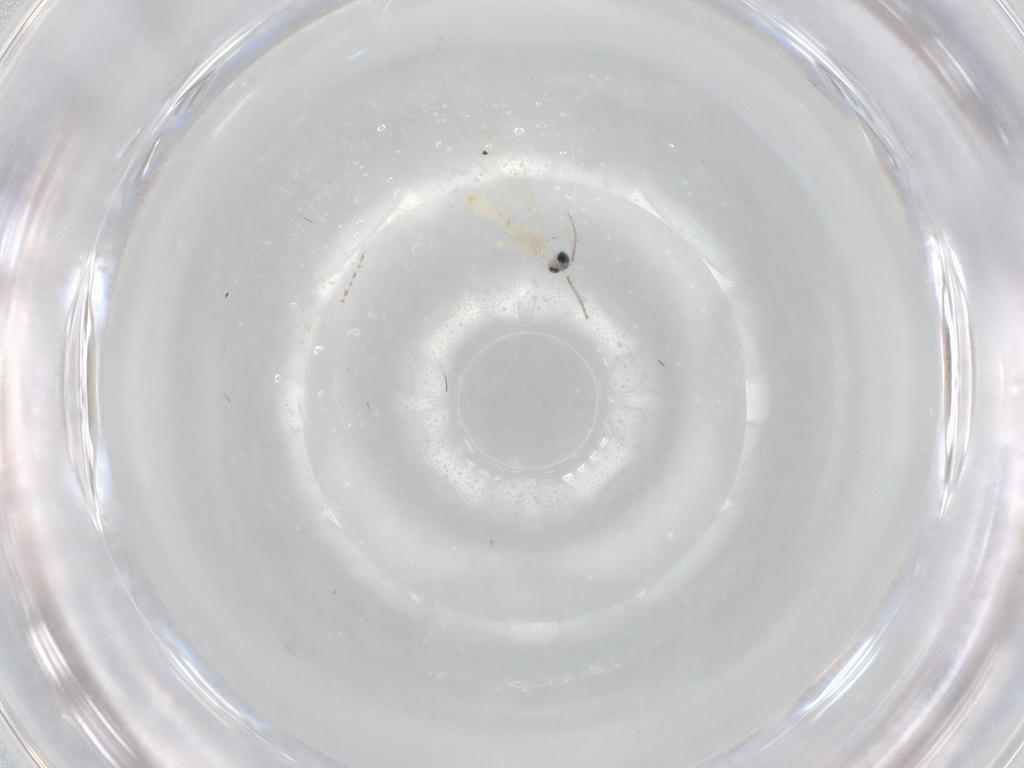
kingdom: Animalia
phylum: Arthropoda
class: Insecta
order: Diptera
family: Cecidomyiidae
